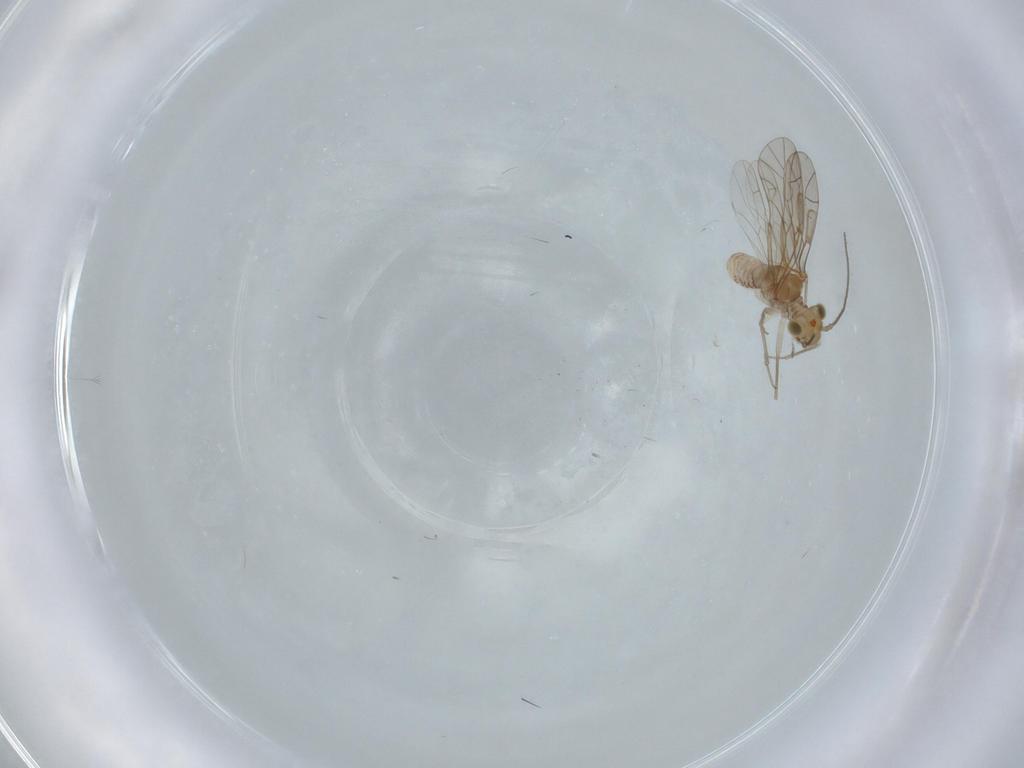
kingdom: Animalia
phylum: Arthropoda
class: Insecta
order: Psocodea
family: Lachesillidae
